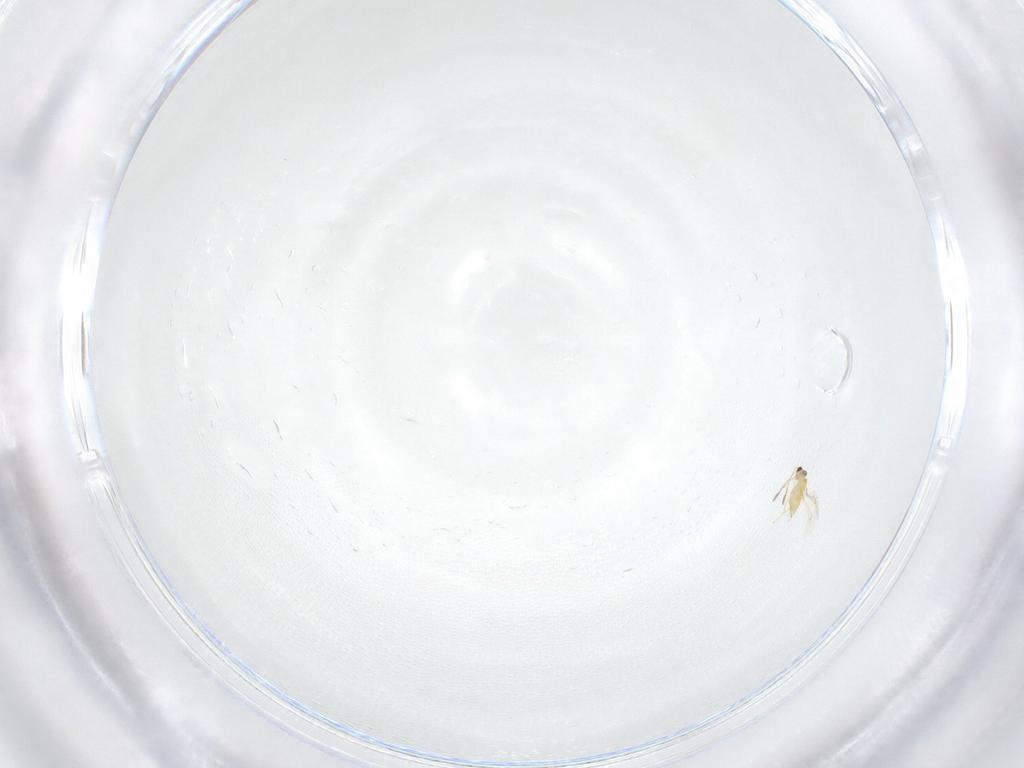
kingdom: Animalia
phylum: Arthropoda
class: Insecta
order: Hymenoptera
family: Mymaridae
